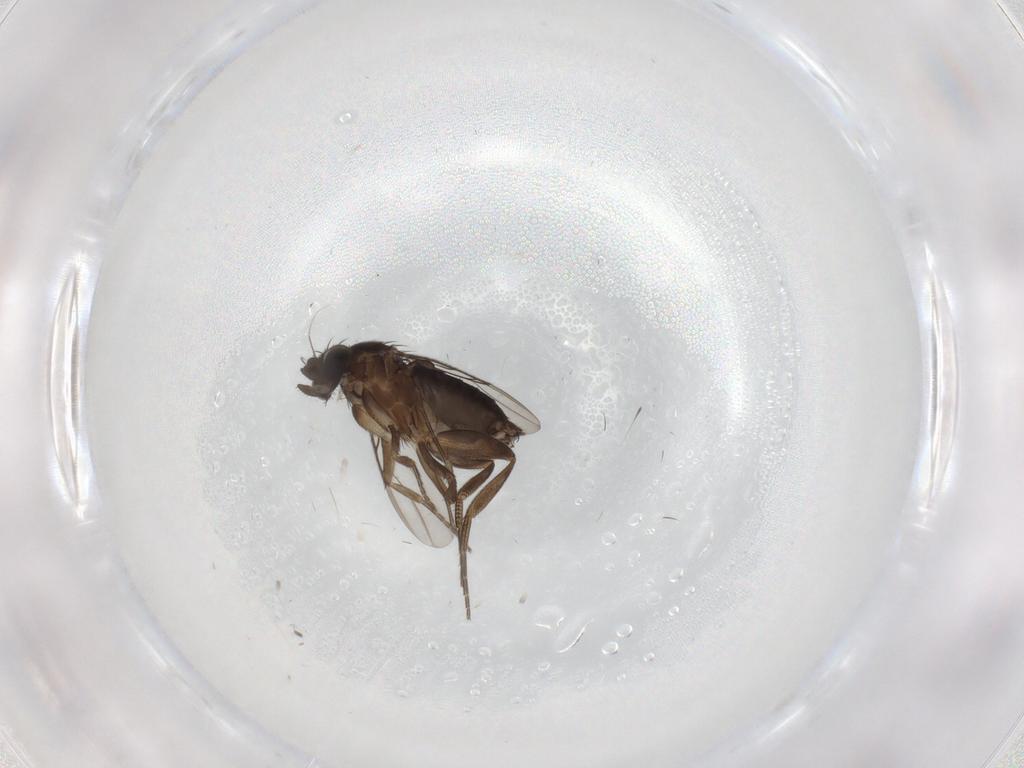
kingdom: Animalia
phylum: Arthropoda
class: Insecta
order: Diptera
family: Phoridae
